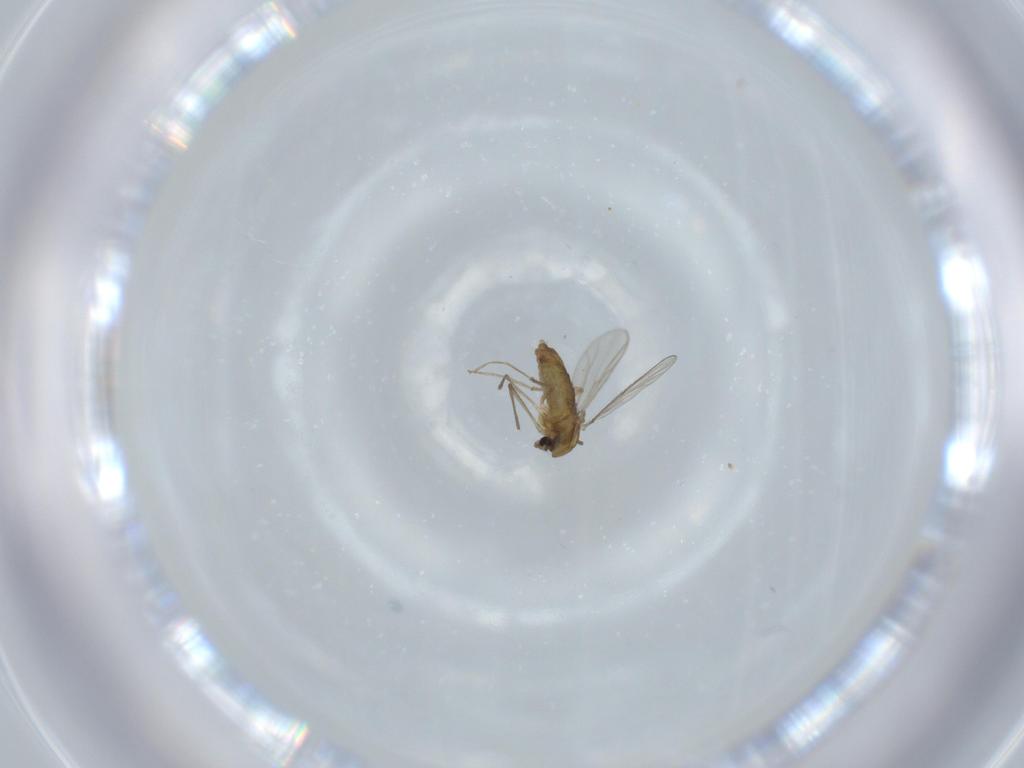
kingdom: Animalia
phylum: Arthropoda
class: Insecta
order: Diptera
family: Chironomidae
